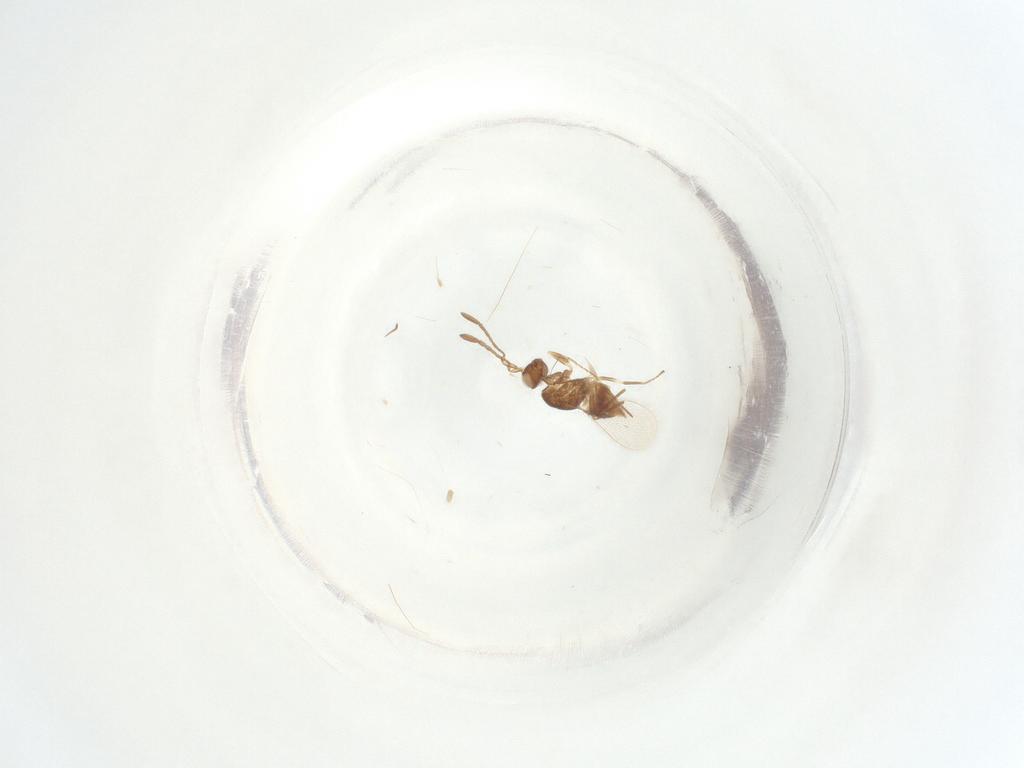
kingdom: Animalia
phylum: Arthropoda
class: Insecta
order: Hymenoptera
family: Mymaridae
